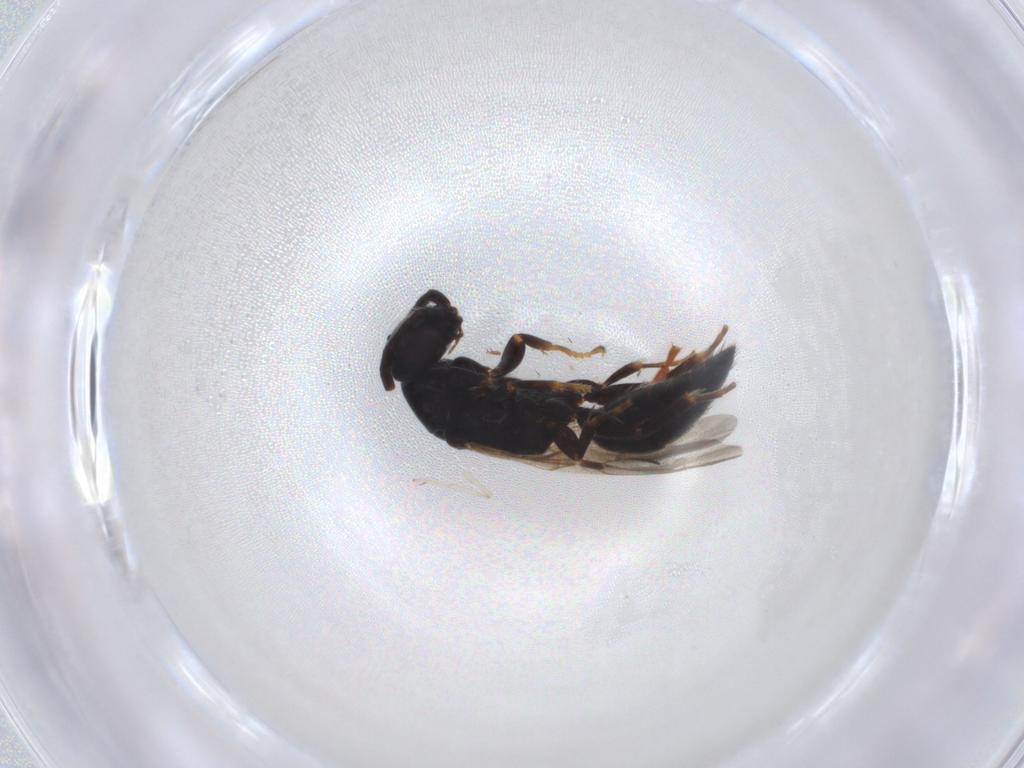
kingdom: Animalia
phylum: Arthropoda
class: Insecta
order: Hymenoptera
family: Bethylidae
